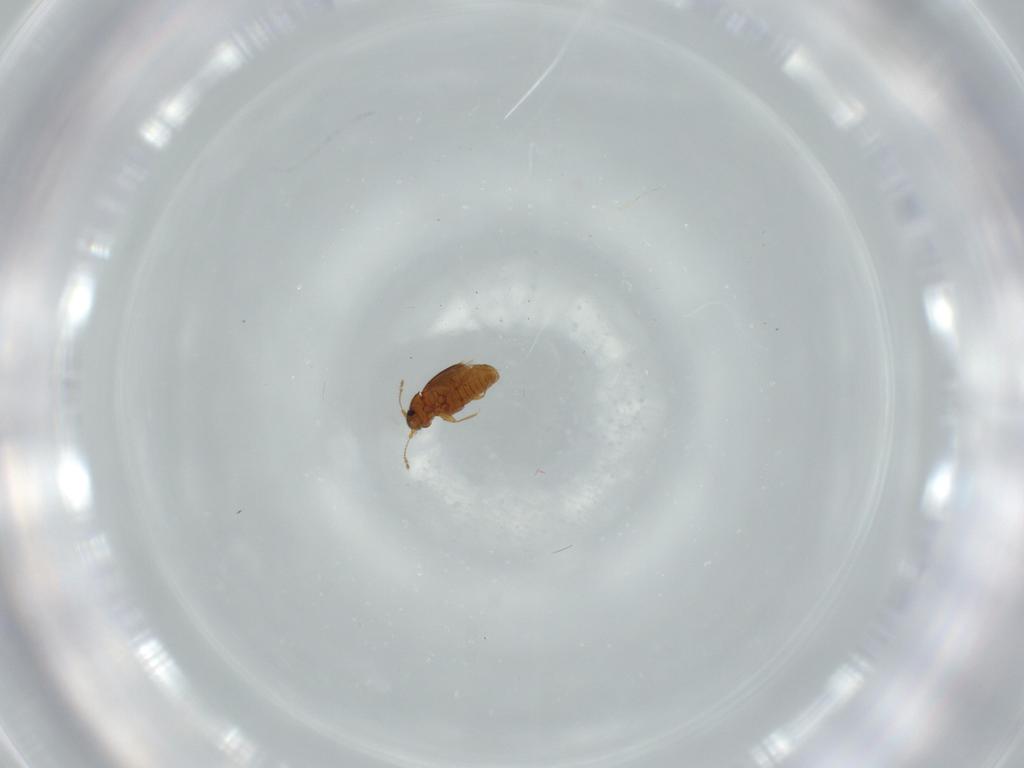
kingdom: Animalia
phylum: Arthropoda
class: Insecta
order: Coleoptera
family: Ptiliidae
